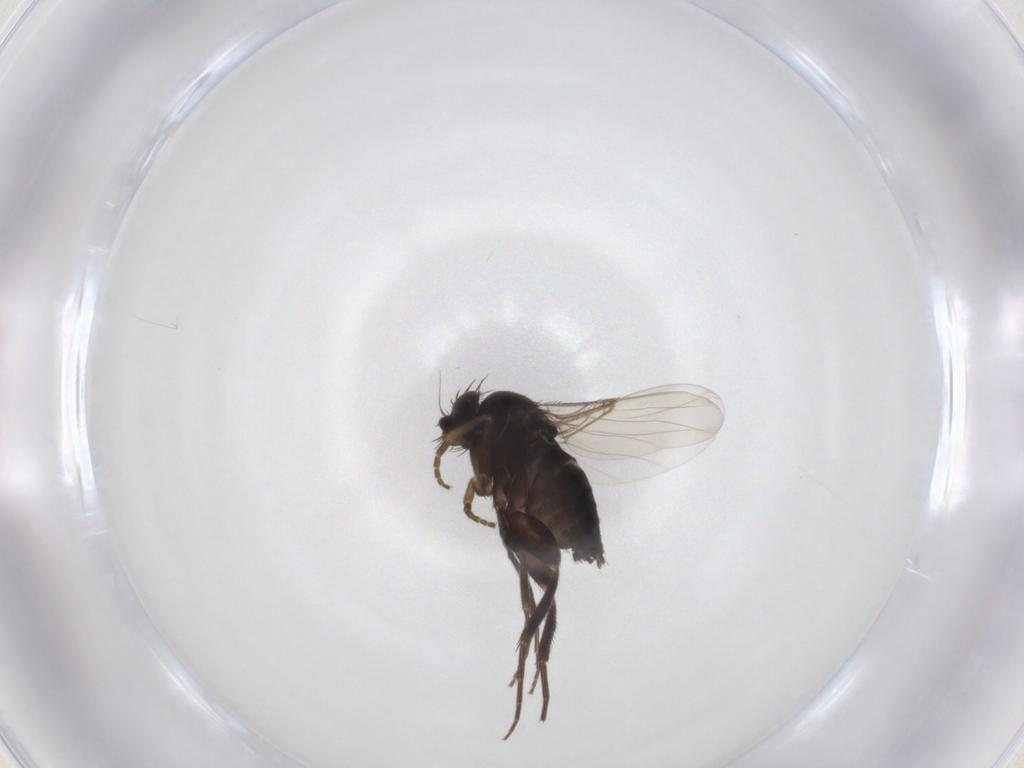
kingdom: Animalia
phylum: Arthropoda
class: Insecta
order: Diptera
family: Phoridae
